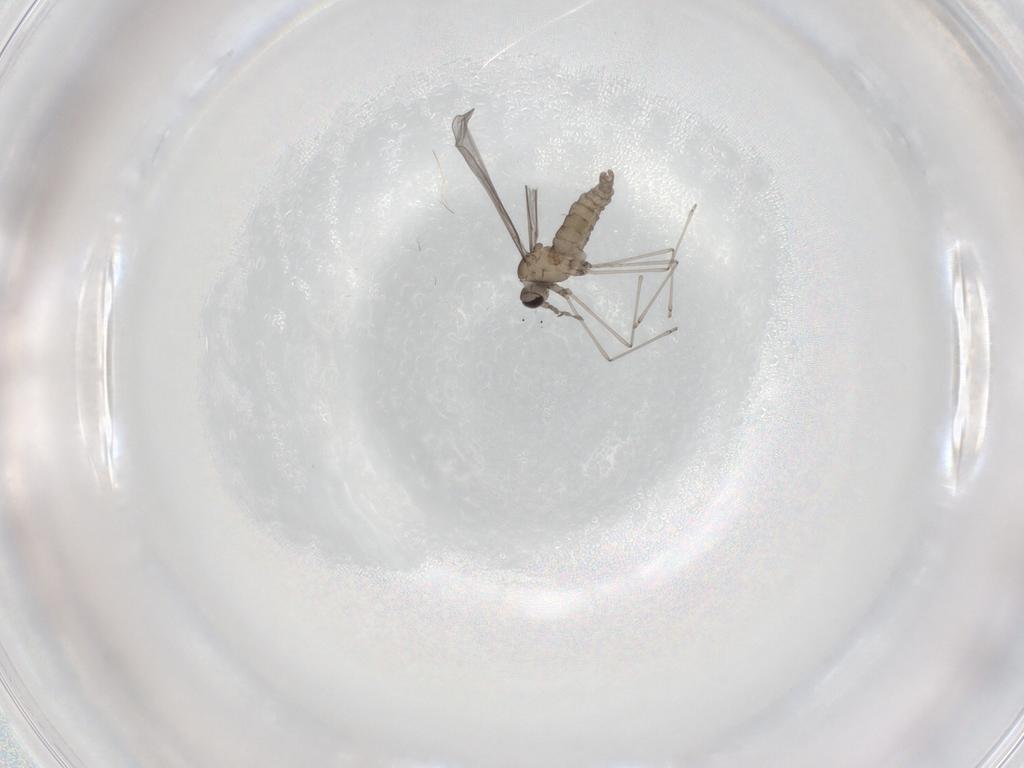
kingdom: Animalia
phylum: Arthropoda
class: Insecta
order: Diptera
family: Cecidomyiidae
